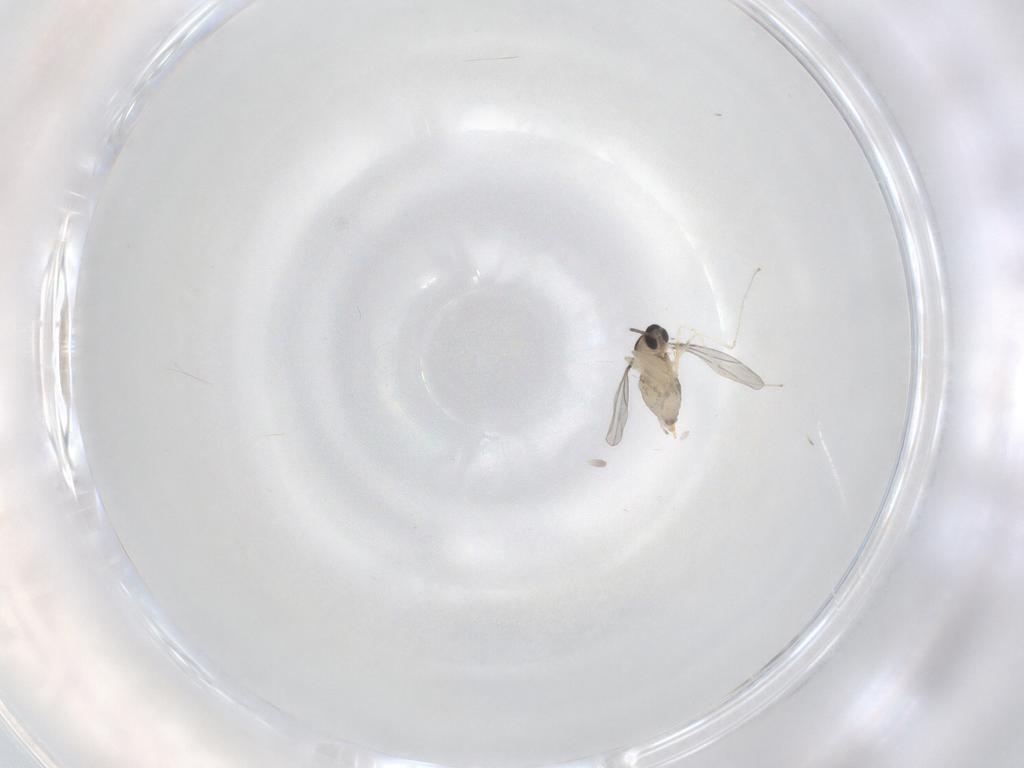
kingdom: Animalia
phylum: Arthropoda
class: Insecta
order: Diptera
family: Cecidomyiidae
